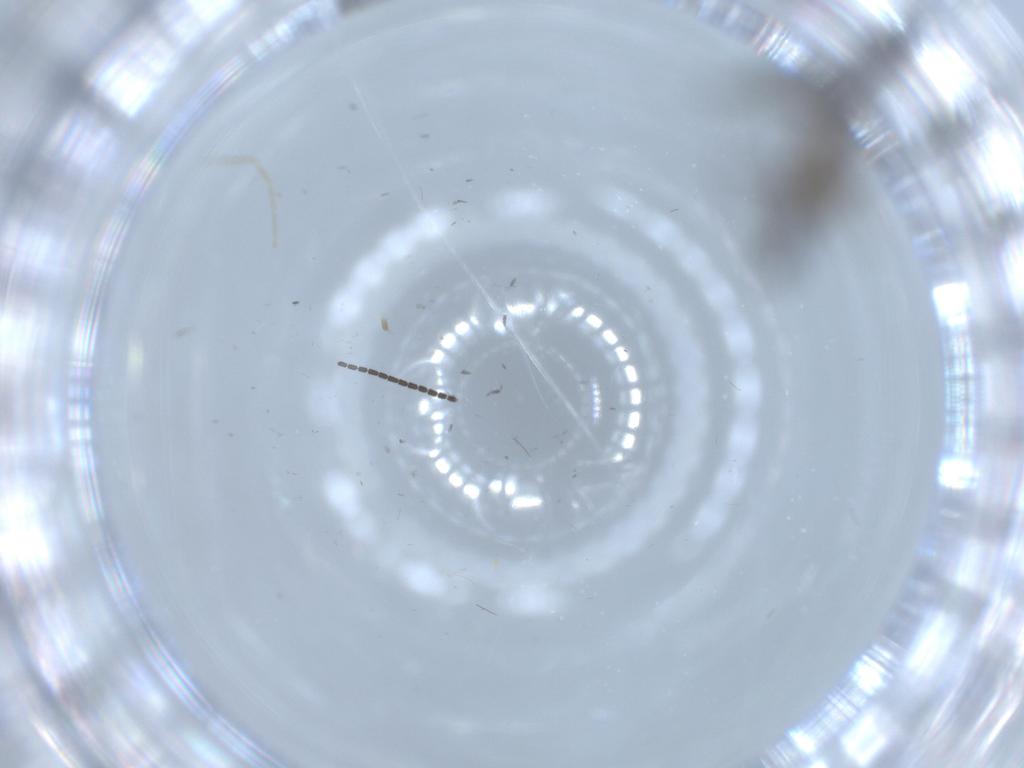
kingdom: Animalia
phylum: Arthropoda
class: Insecta
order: Diptera
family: Sciaridae
